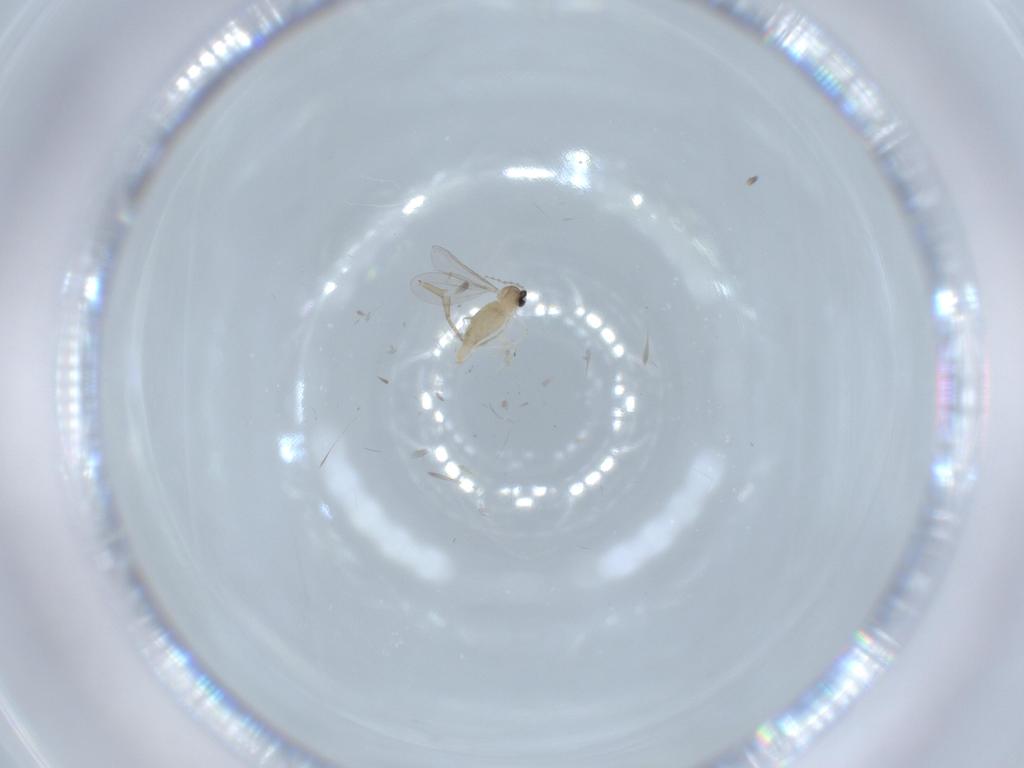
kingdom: Animalia
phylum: Arthropoda
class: Insecta
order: Diptera
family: Cecidomyiidae
